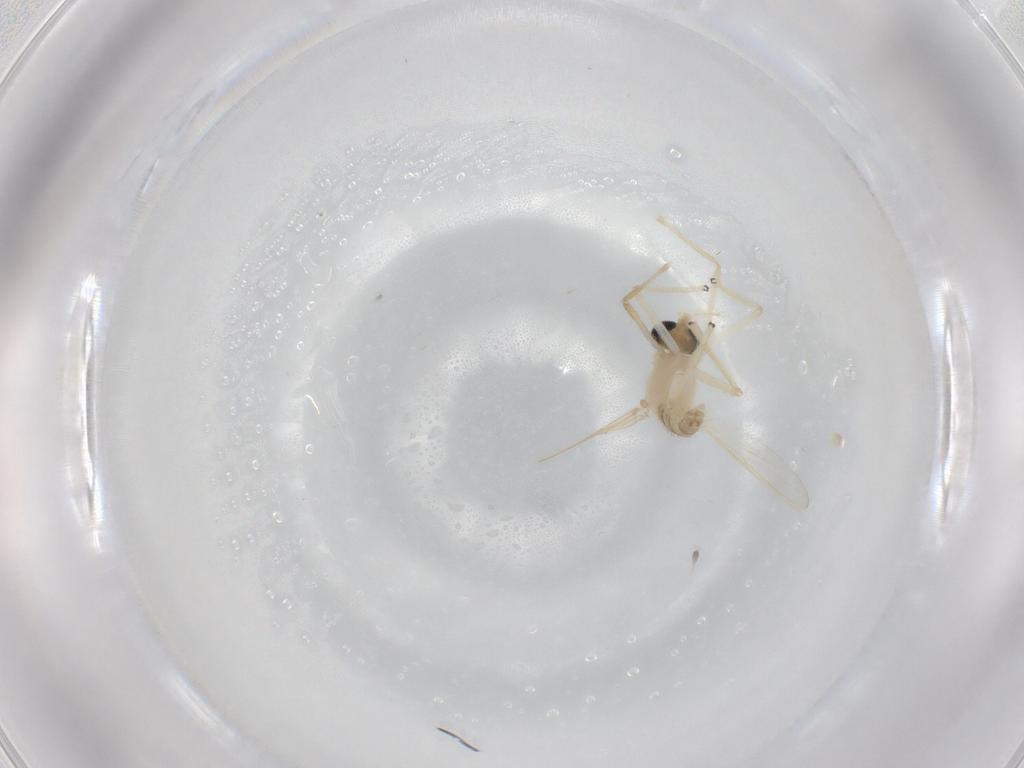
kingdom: Animalia
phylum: Arthropoda
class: Insecta
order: Diptera
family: Chironomidae
